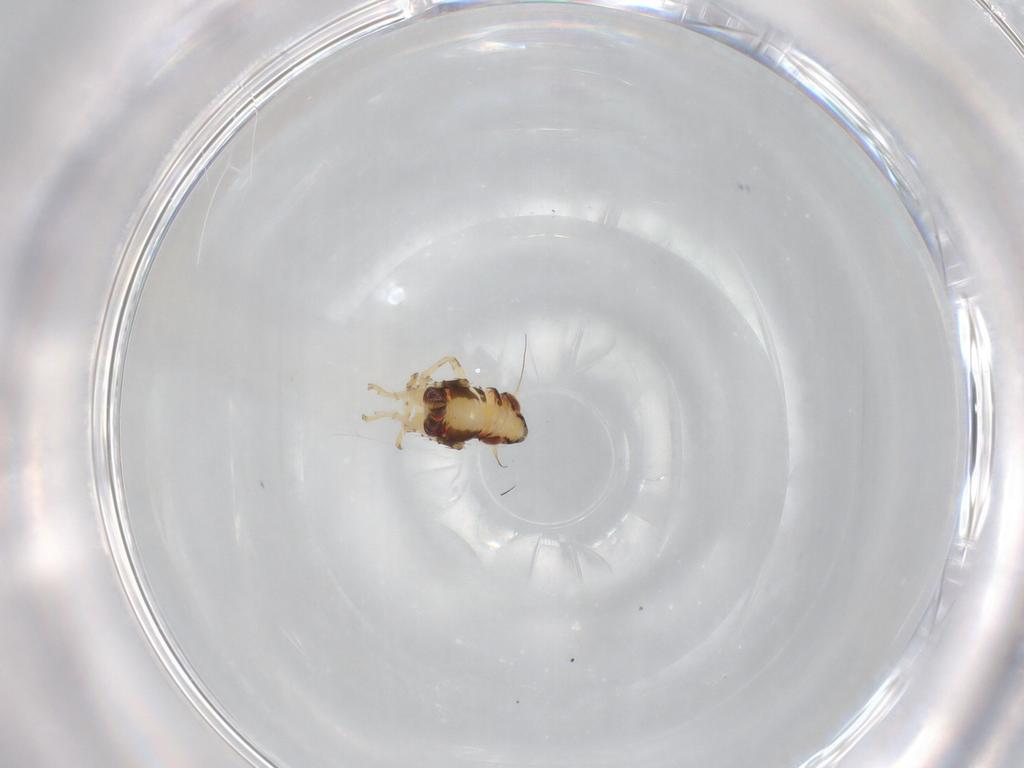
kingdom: Animalia
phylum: Arthropoda
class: Insecta
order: Hemiptera
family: Cicadellidae
